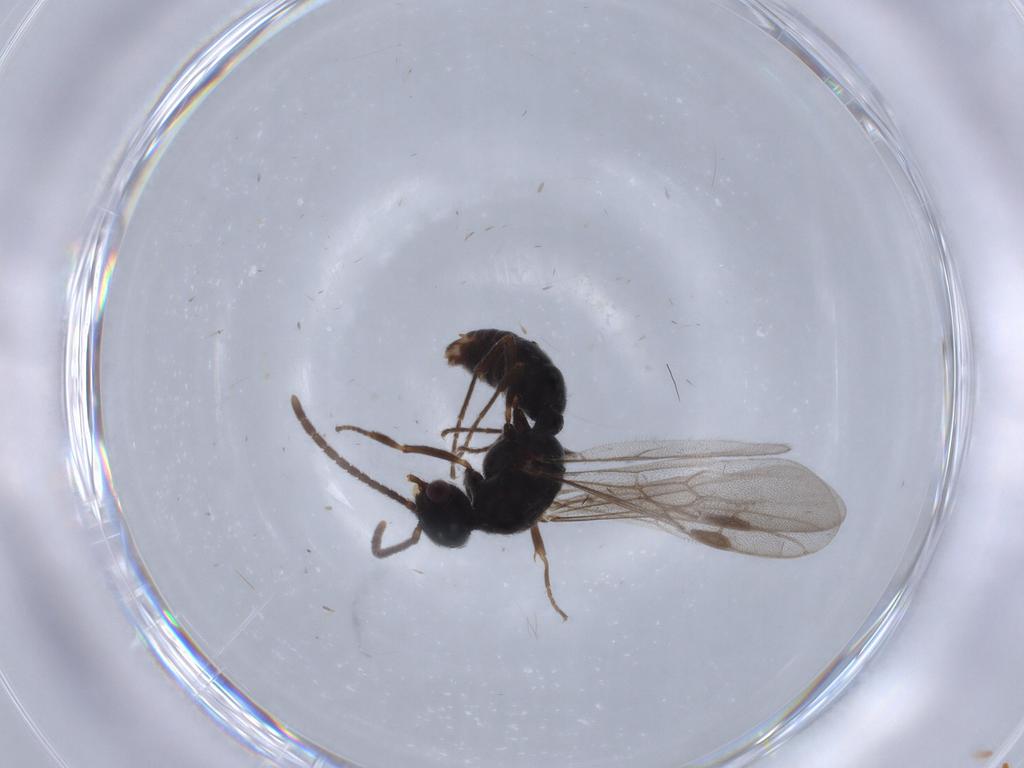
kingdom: Animalia
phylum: Arthropoda
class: Insecta
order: Hymenoptera
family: Formicidae
